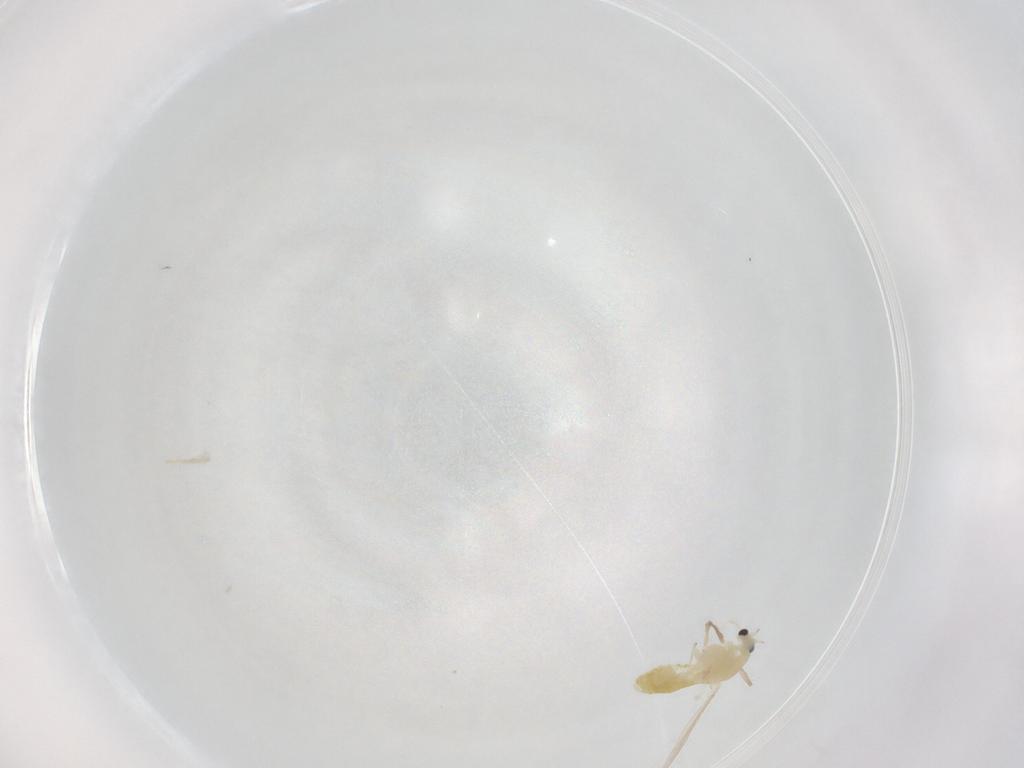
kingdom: Animalia
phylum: Arthropoda
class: Insecta
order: Diptera
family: Chironomidae
